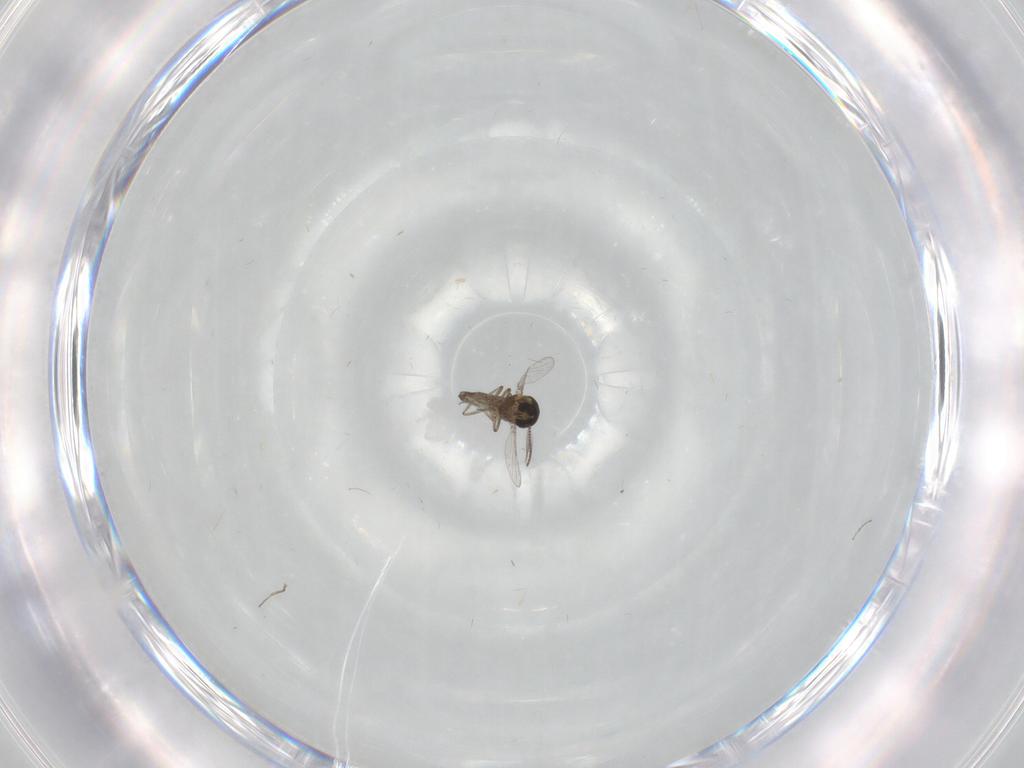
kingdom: Animalia
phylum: Arthropoda
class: Insecta
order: Diptera
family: Ceratopogonidae
